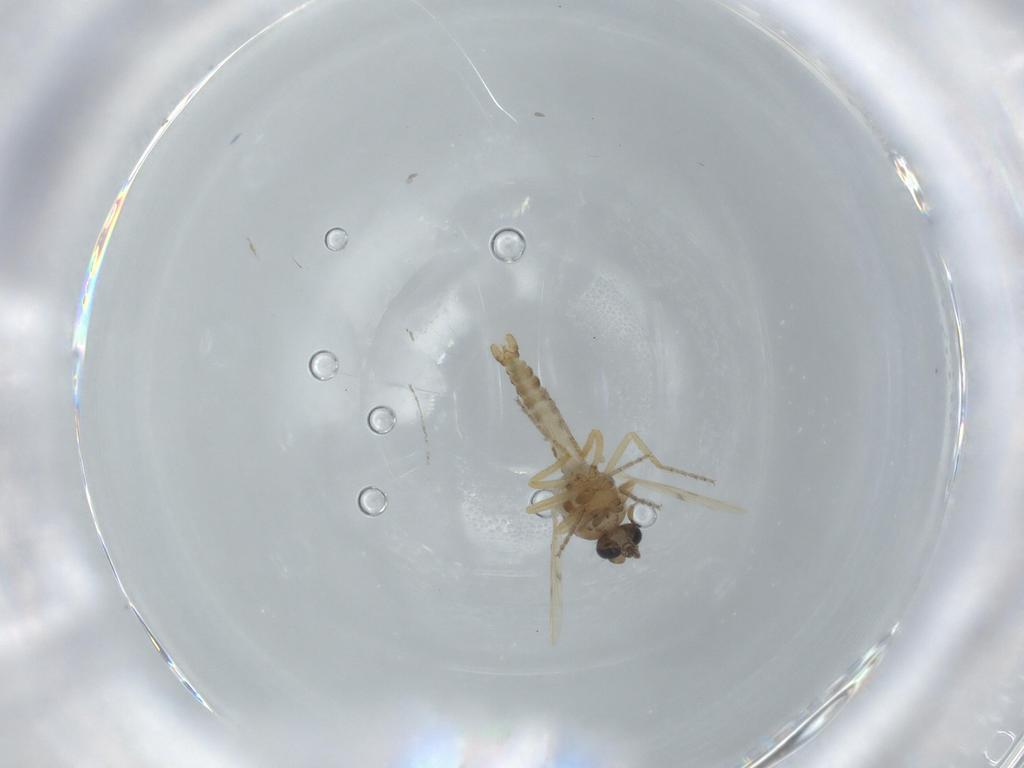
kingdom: Animalia
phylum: Arthropoda
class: Insecta
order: Diptera
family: Ceratopogonidae
